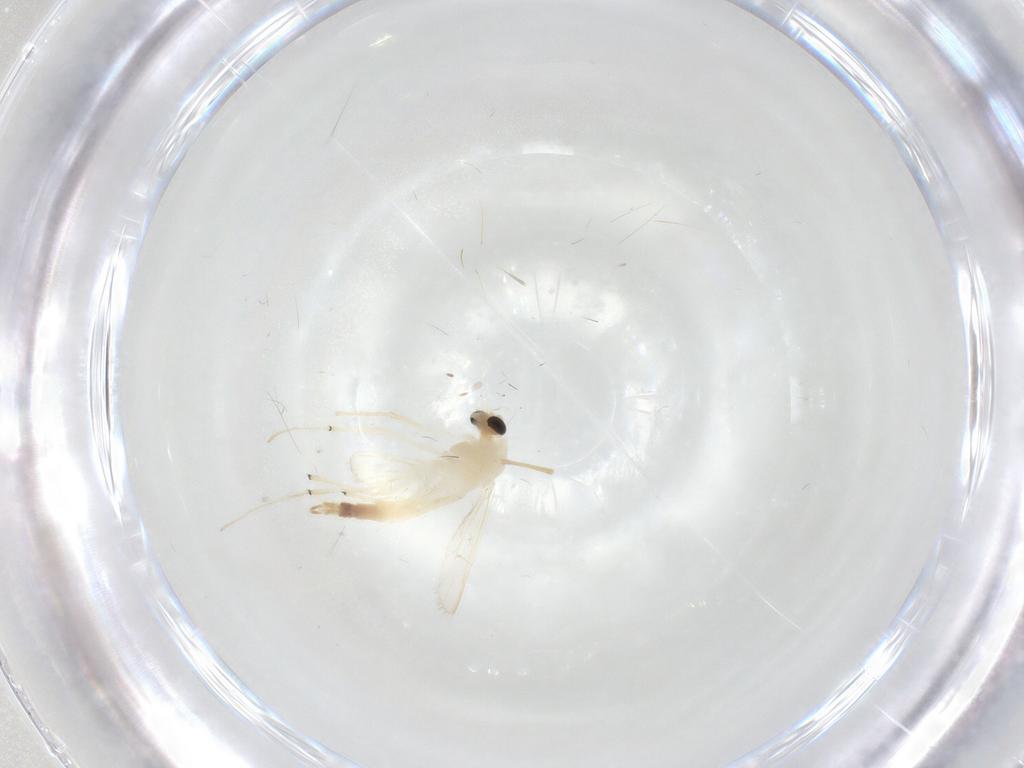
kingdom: Animalia
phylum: Arthropoda
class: Insecta
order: Diptera
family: Chironomidae
